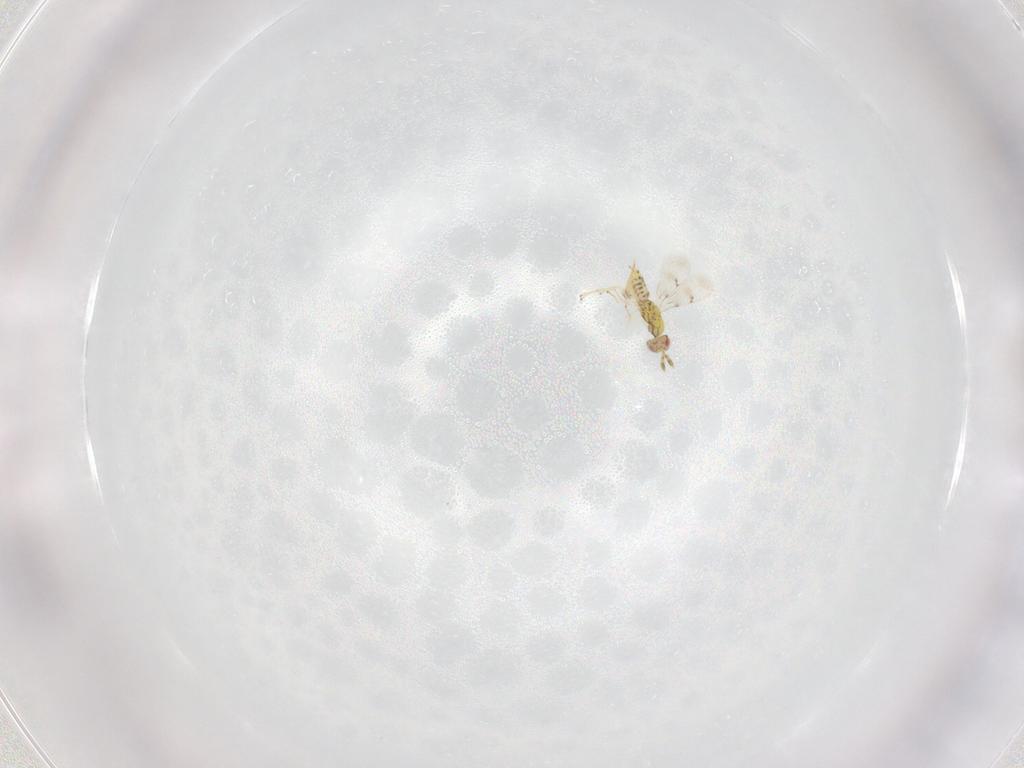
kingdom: Animalia
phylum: Arthropoda
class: Insecta
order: Hymenoptera
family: Eulophidae
